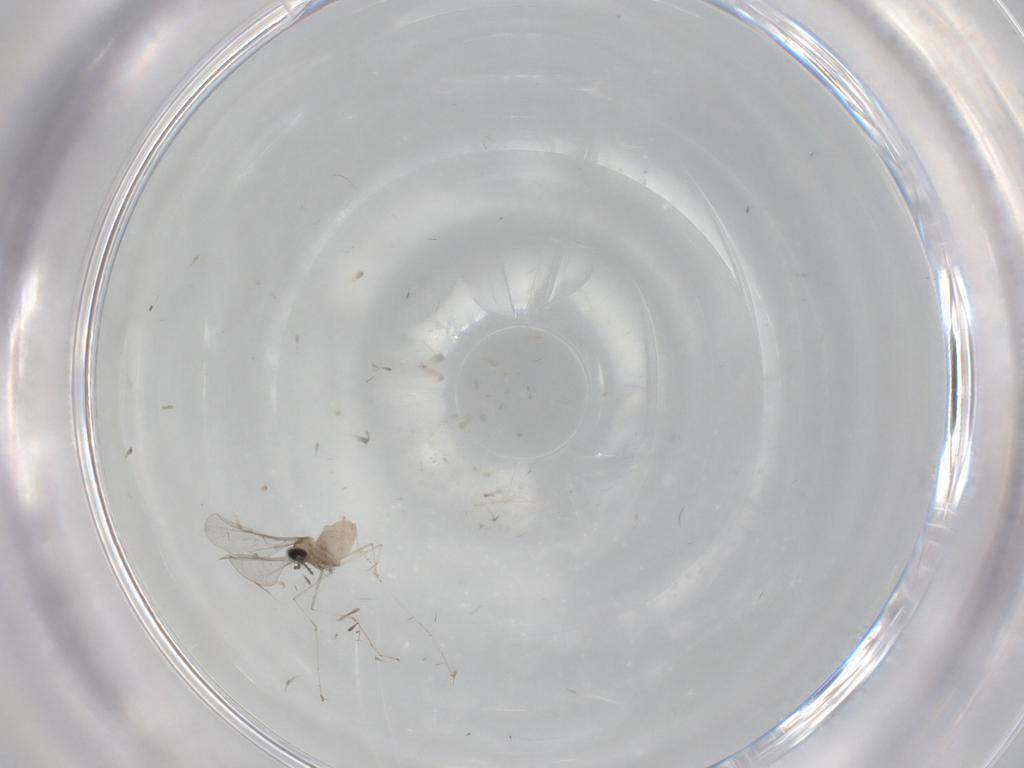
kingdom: Animalia
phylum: Arthropoda
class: Insecta
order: Diptera
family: Cecidomyiidae
